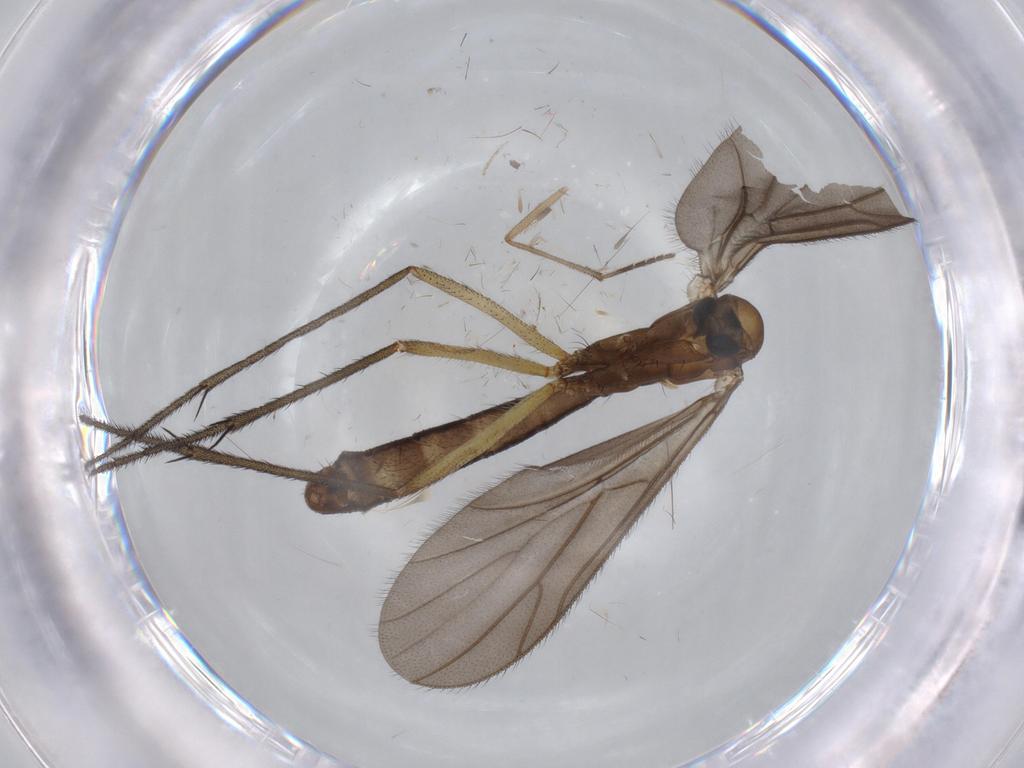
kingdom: Animalia
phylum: Arthropoda
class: Insecta
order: Diptera
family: Ditomyiidae
